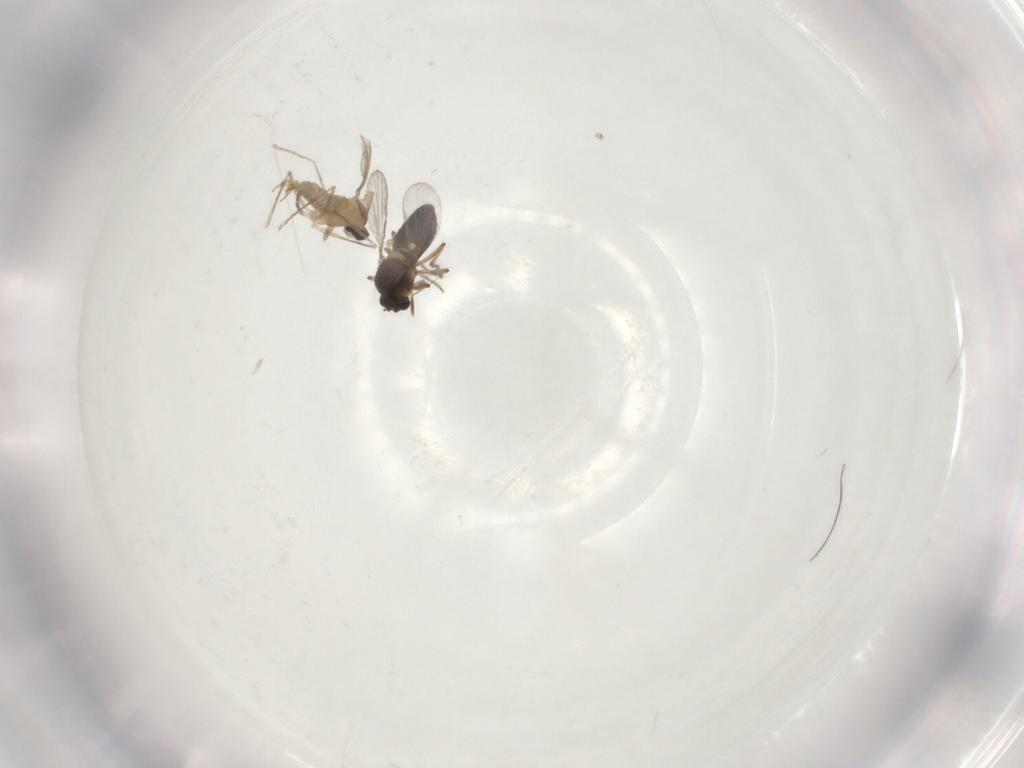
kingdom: Animalia
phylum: Arthropoda
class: Insecta
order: Diptera
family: Ceratopogonidae
